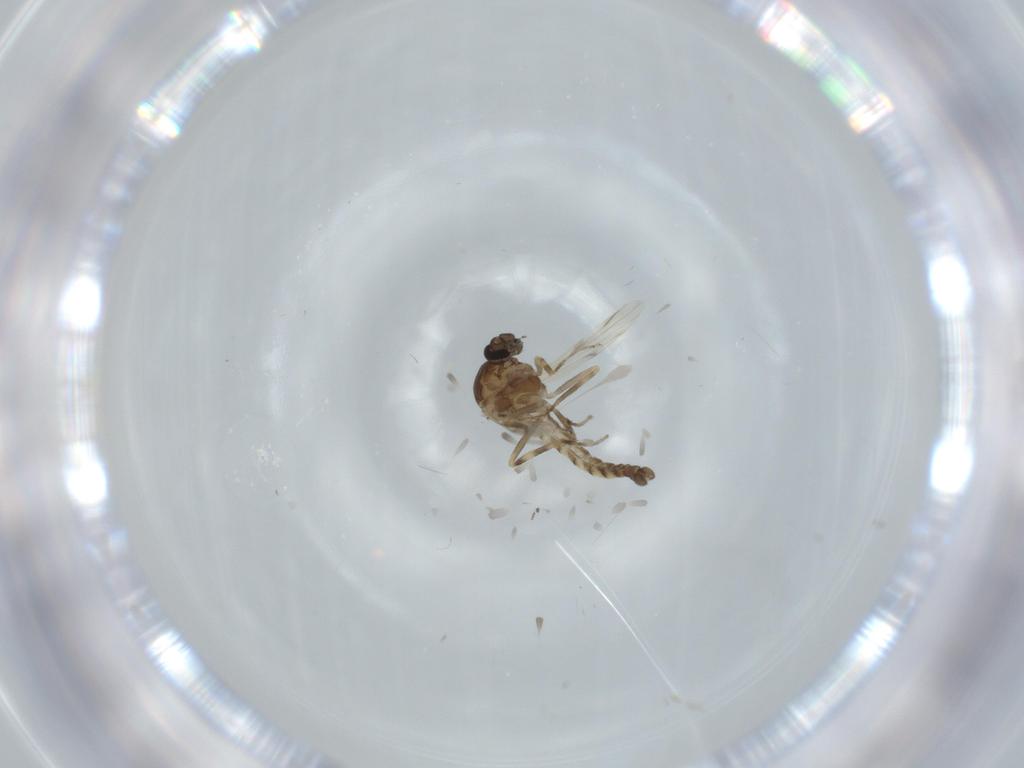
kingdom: Animalia
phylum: Arthropoda
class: Insecta
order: Diptera
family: Ceratopogonidae
